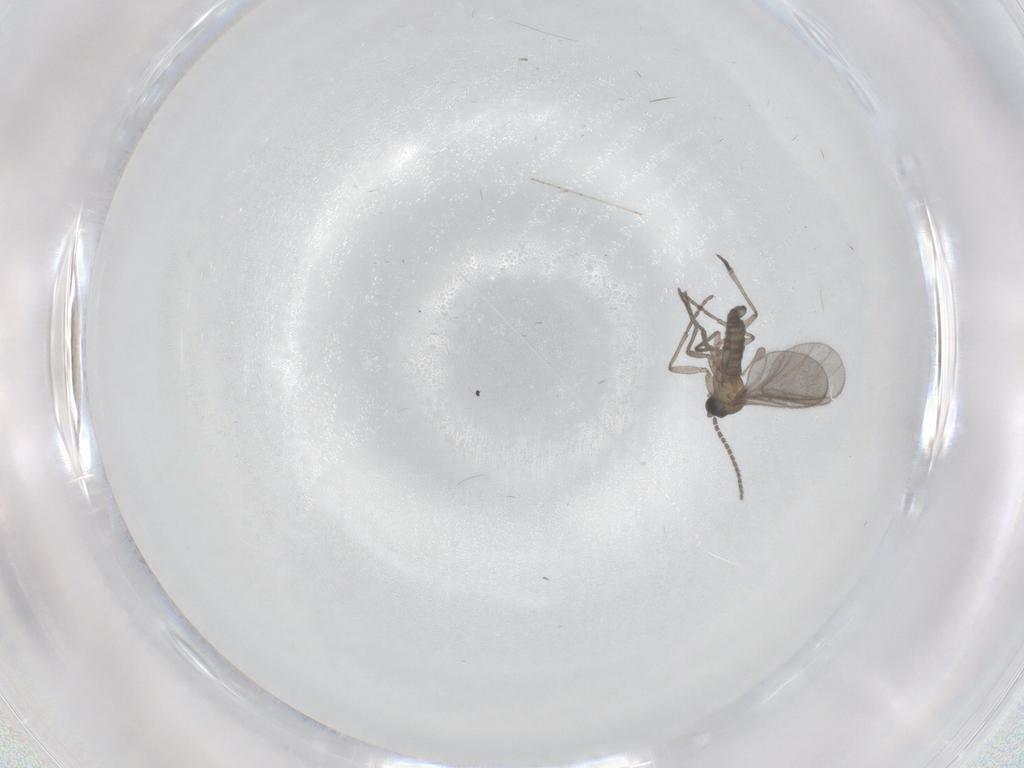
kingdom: Animalia
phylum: Arthropoda
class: Insecta
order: Diptera
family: Sciaridae
